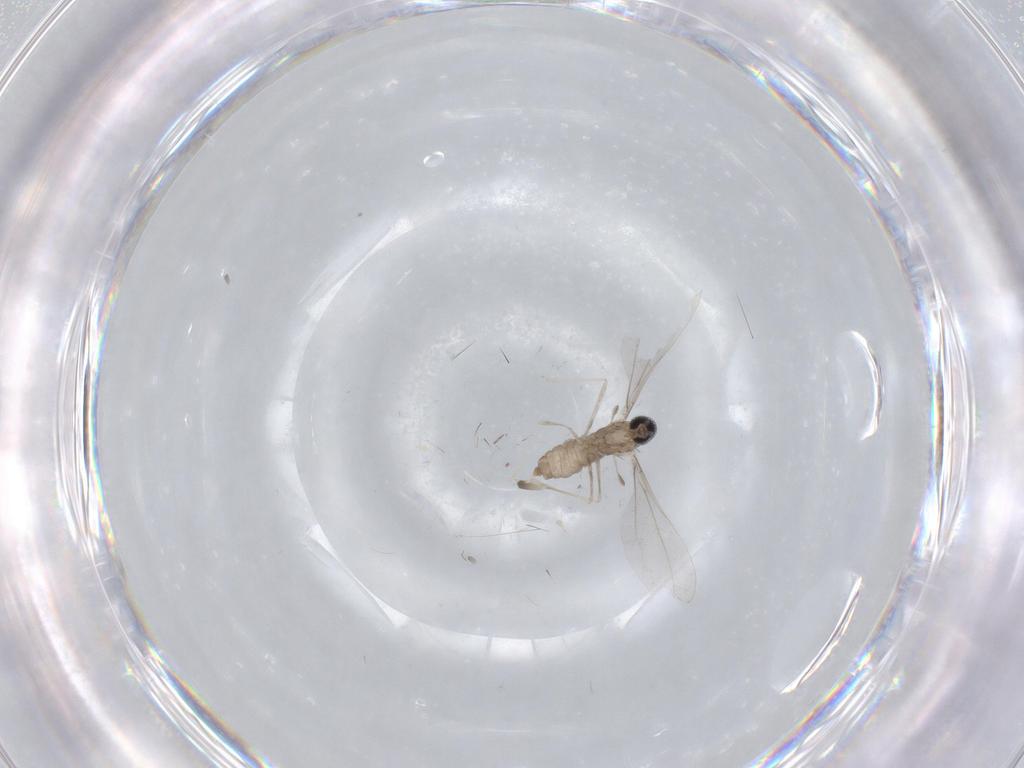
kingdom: Animalia
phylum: Arthropoda
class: Insecta
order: Diptera
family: Cecidomyiidae
